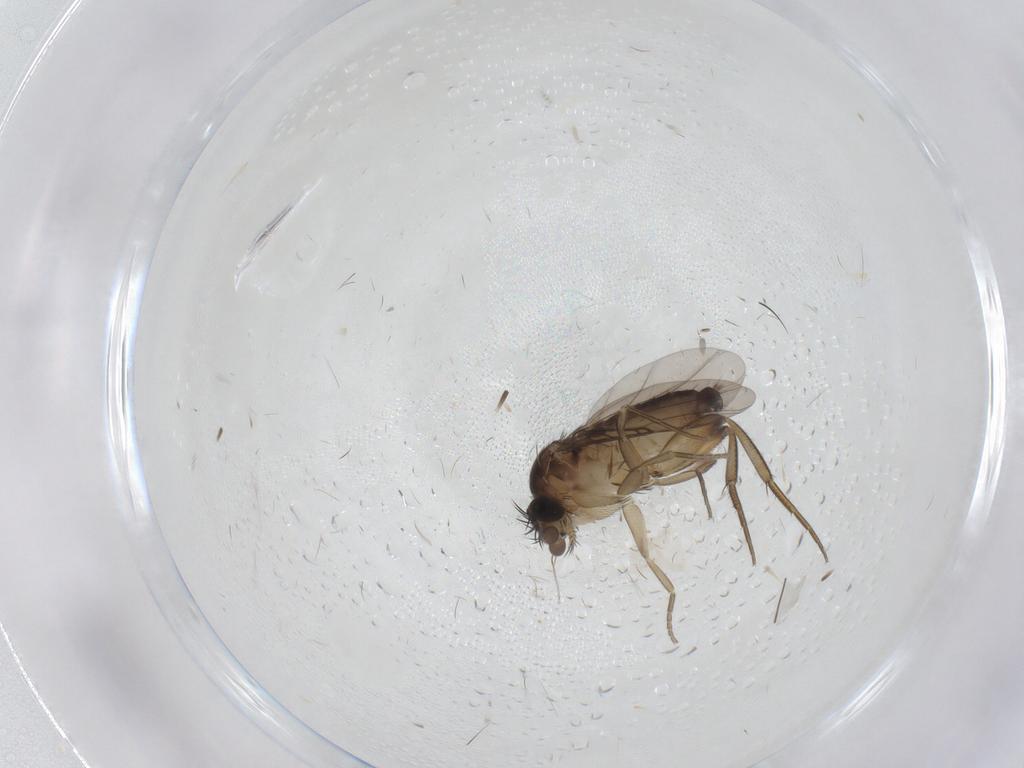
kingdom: Animalia
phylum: Arthropoda
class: Insecta
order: Diptera
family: Phoridae
